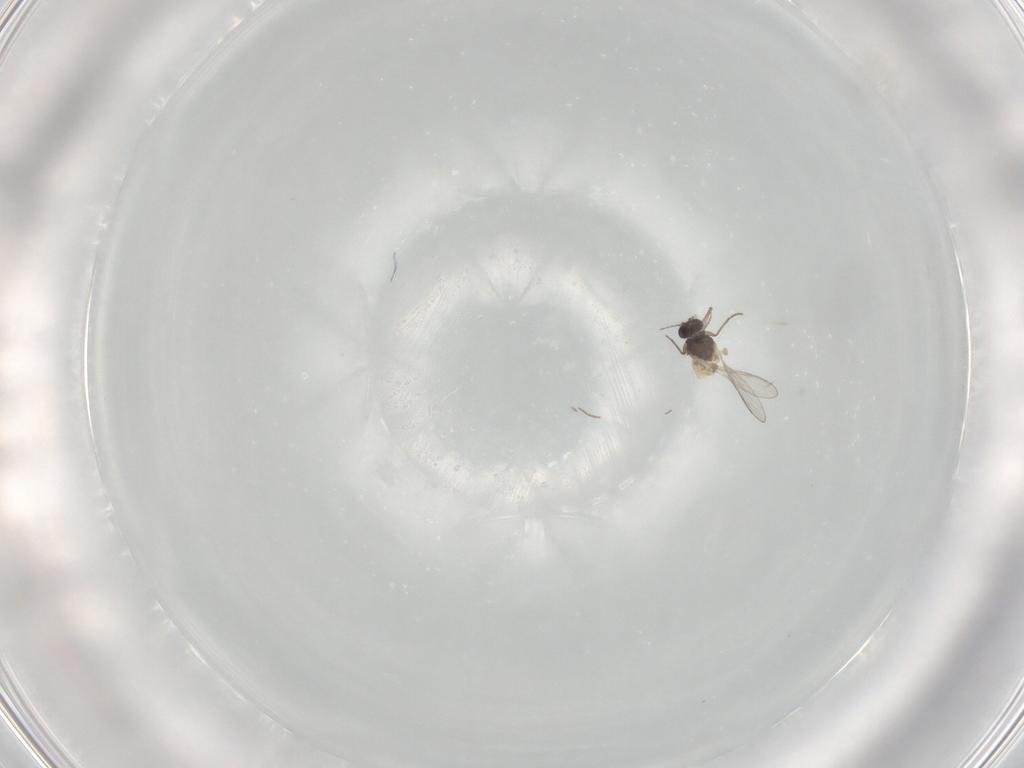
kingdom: Animalia
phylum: Arthropoda
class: Insecta
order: Diptera
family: Chironomidae
